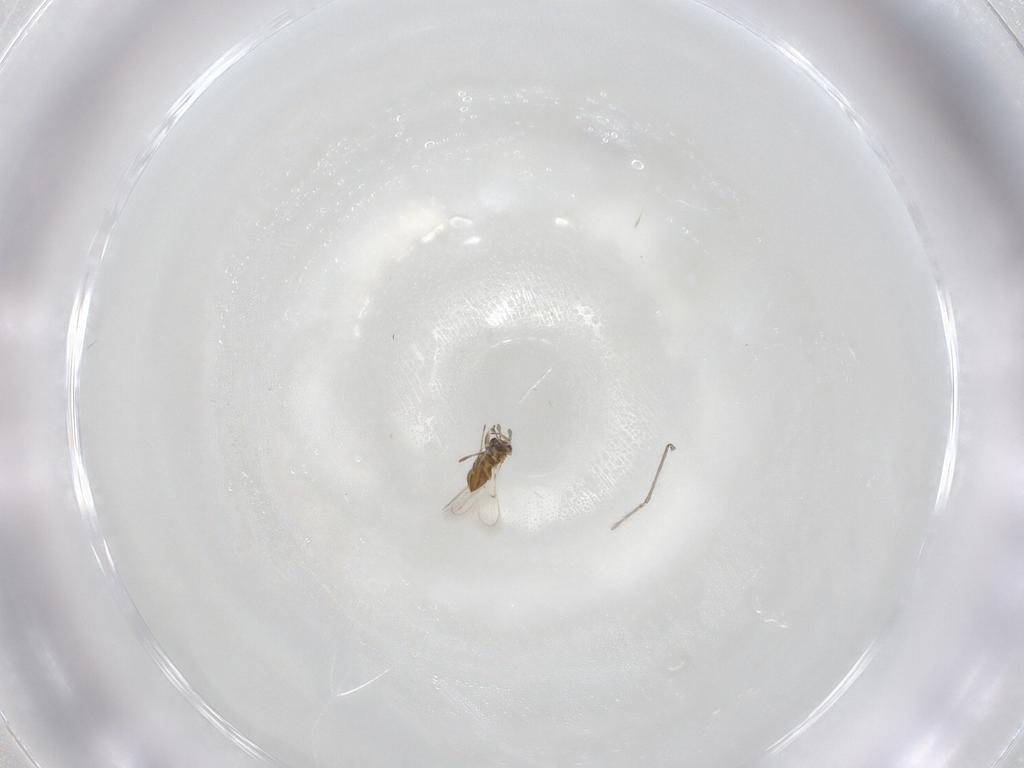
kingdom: Animalia
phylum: Arthropoda
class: Insecta
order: Hymenoptera
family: Trichogrammatidae
